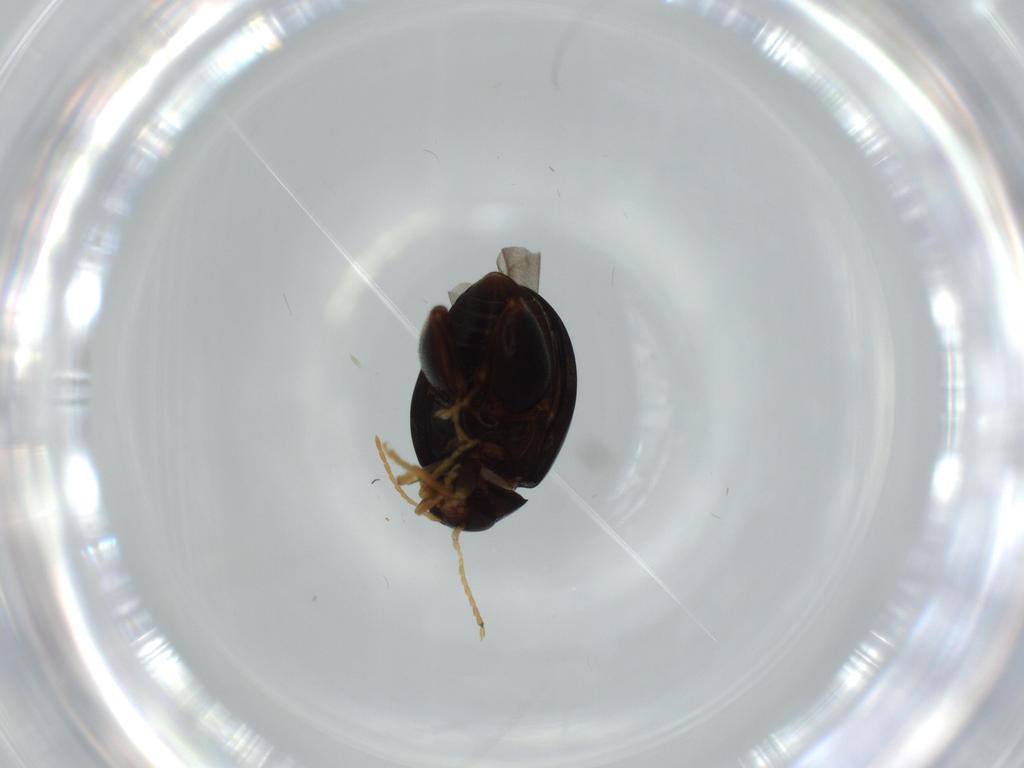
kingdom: Animalia
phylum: Arthropoda
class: Insecta
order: Coleoptera
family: Chrysomelidae
